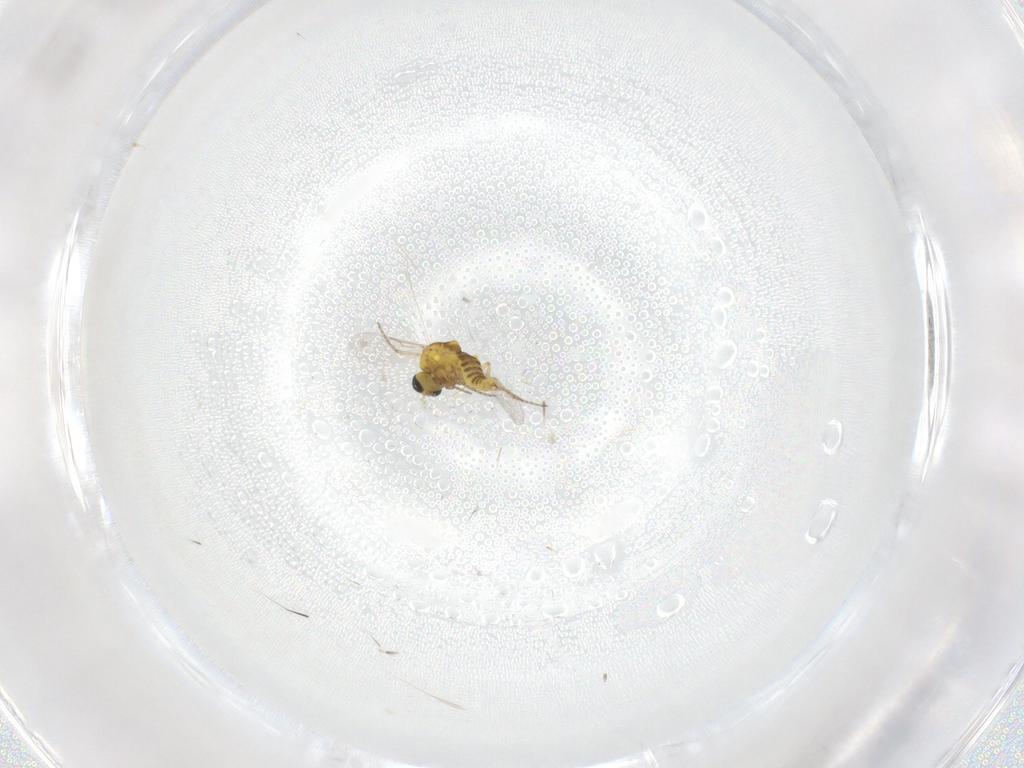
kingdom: Animalia
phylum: Arthropoda
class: Insecta
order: Diptera
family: Ceratopogonidae
